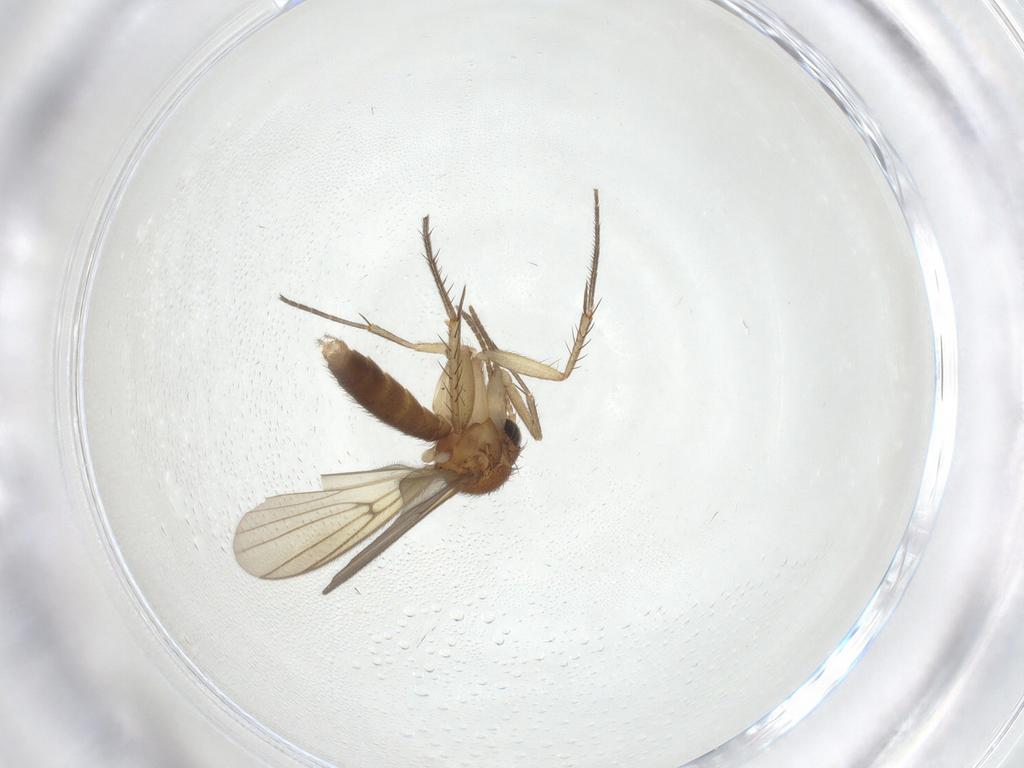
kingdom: Animalia
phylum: Arthropoda
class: Insecta
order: Diptera
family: Mycetophilidae
